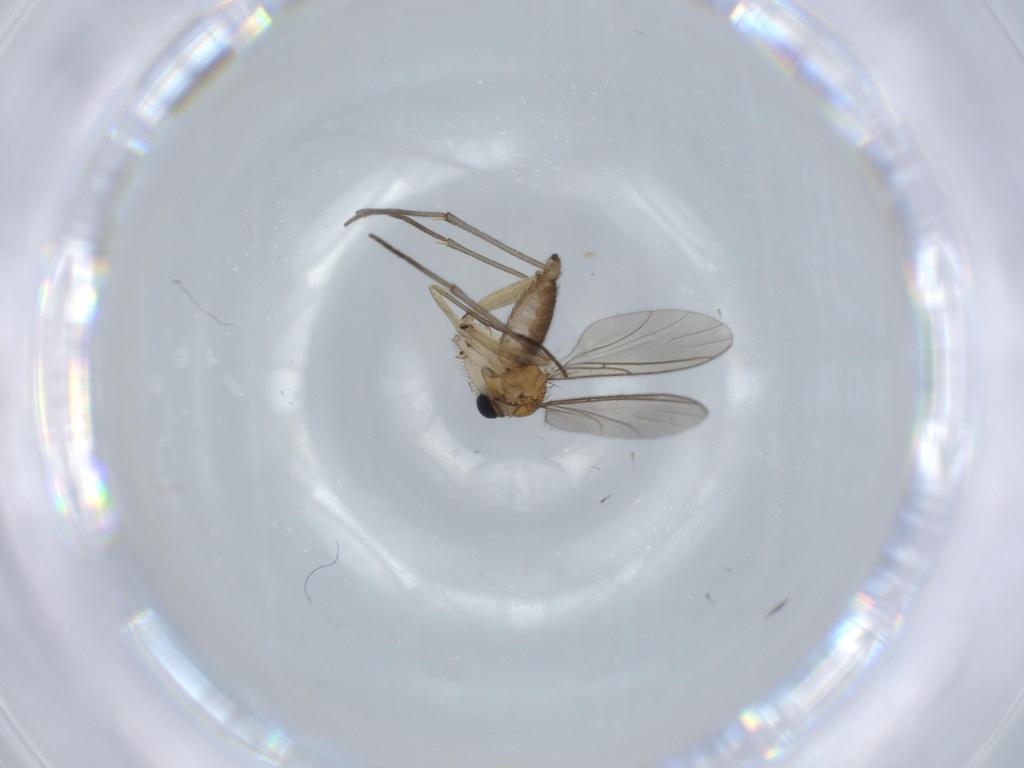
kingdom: Animalia
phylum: Arthropoda
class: Insecta
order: Diptera
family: Sciaridae
